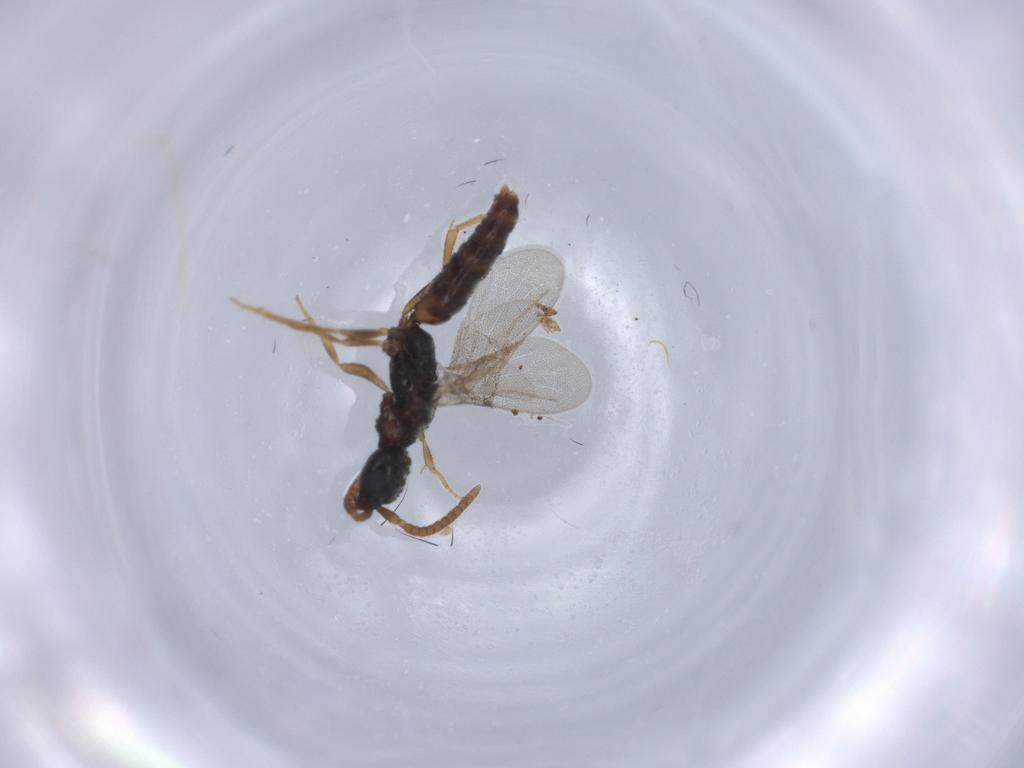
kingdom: Animalia
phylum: Arthropoda
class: Insecta
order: Hymenoptera
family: Bethylidae
